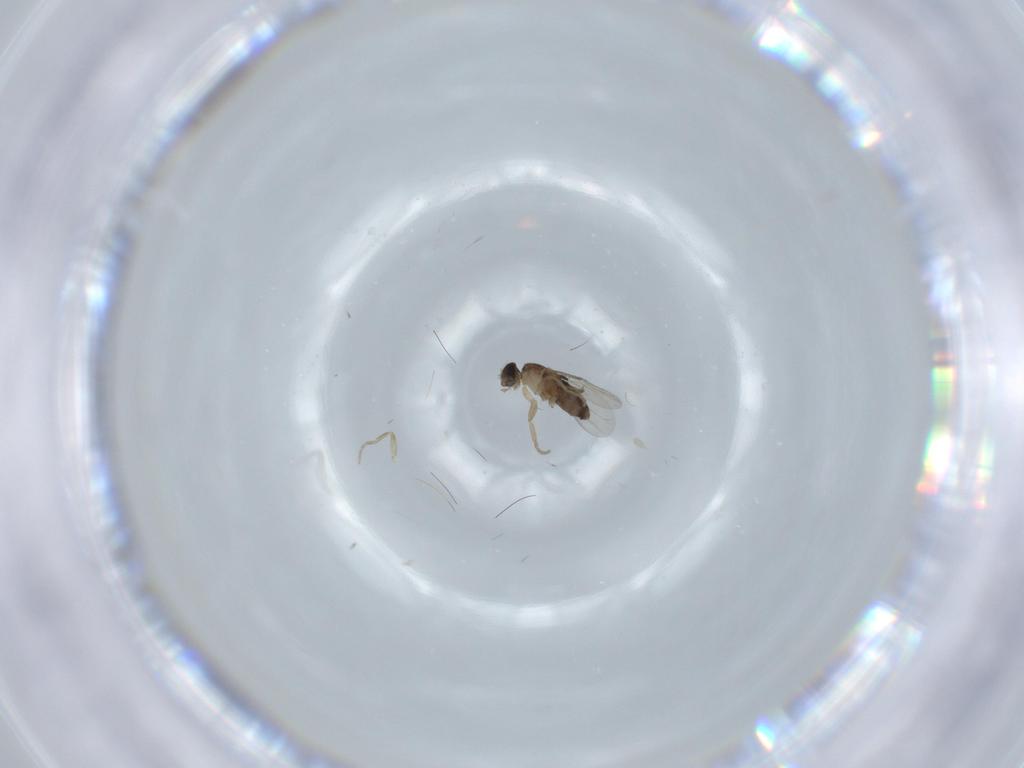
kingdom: Animalia
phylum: Arthropoda
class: Insecta
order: Diptera
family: Phoridae
